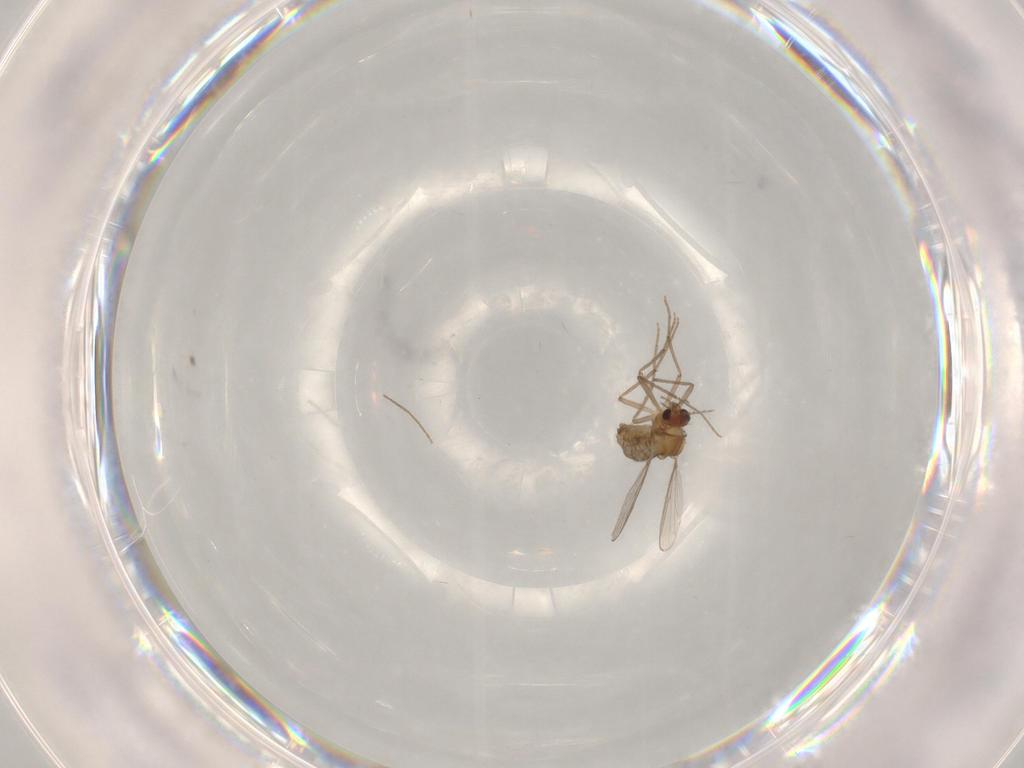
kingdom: Animalia
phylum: Arthropoda
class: Insecta
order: Diptera
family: Chironomidae
